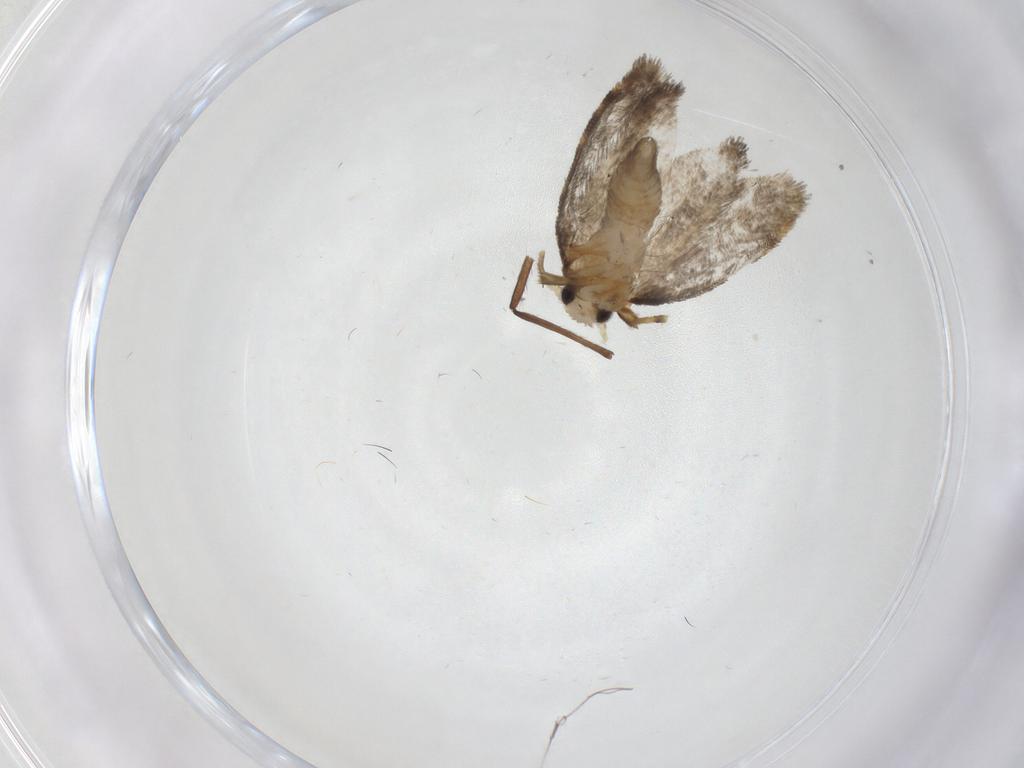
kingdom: Animalia
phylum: Arthropoda
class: Insecta
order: Lepidoptera
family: Psychidae
